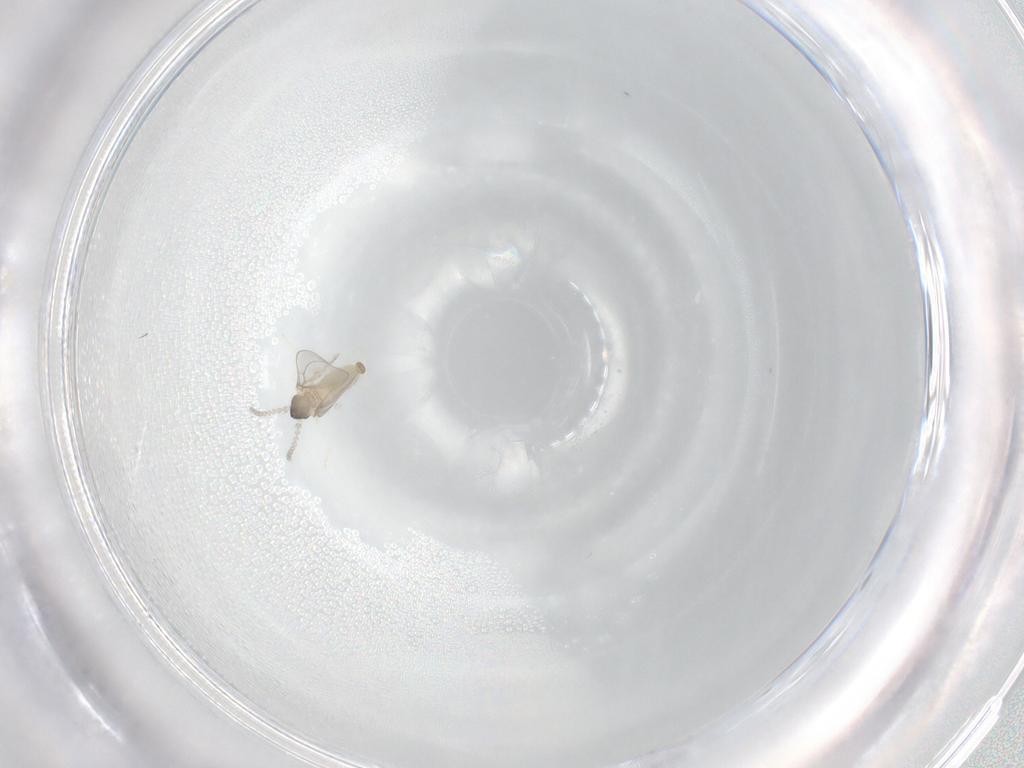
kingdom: Animalia
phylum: Arthropoda
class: Insecta
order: Diptera
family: Cecidomyiidae
